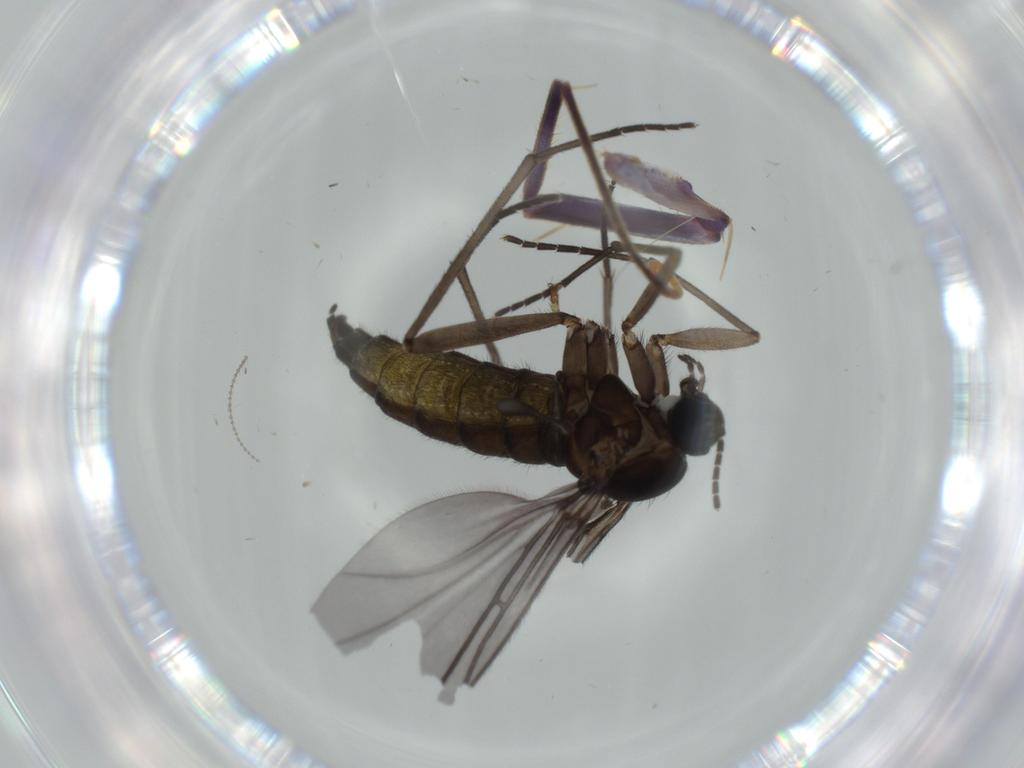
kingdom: Animalia
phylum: Arthropoda
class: Insecta
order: Diptera
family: Sciaridae
